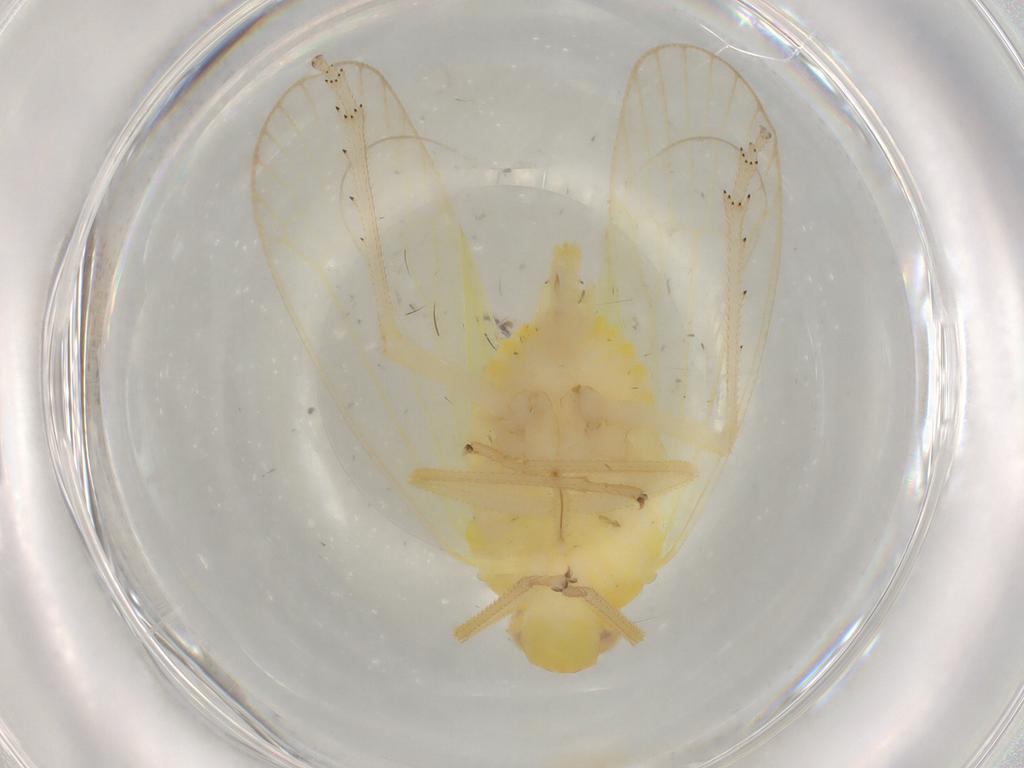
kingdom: Animalia
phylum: Arthropoda
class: Insecta
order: Hemiptera
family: Tropiduchidae
